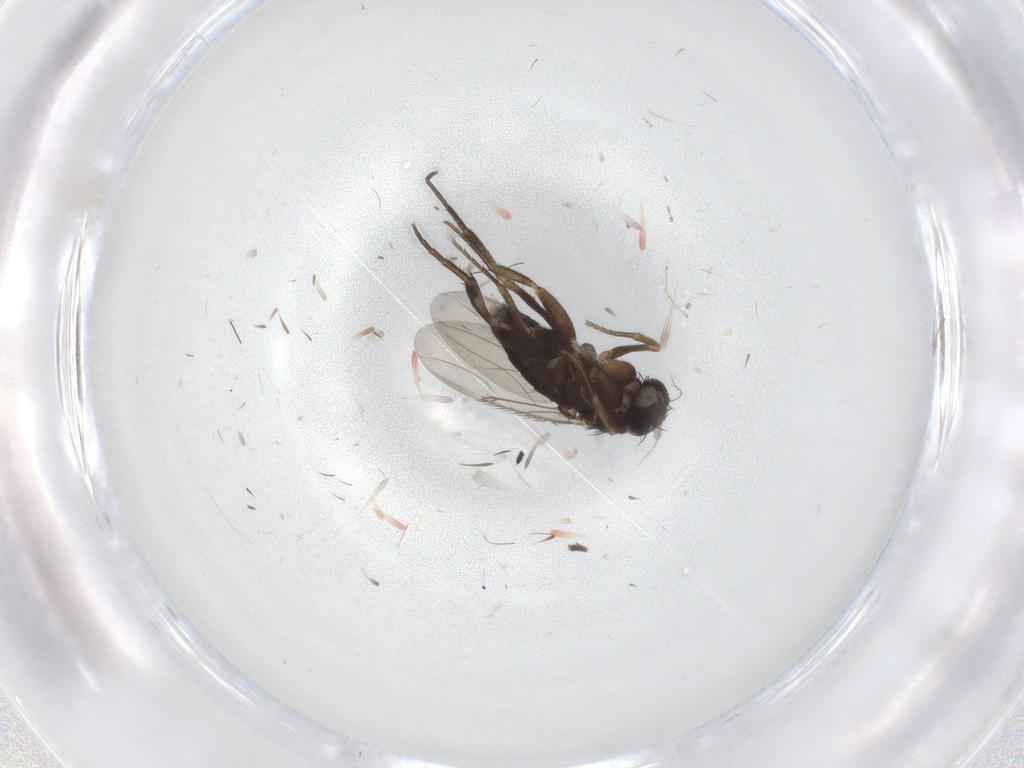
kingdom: Animalia
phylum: Arthropoda
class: Insecta
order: Diptera
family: Phoridae
